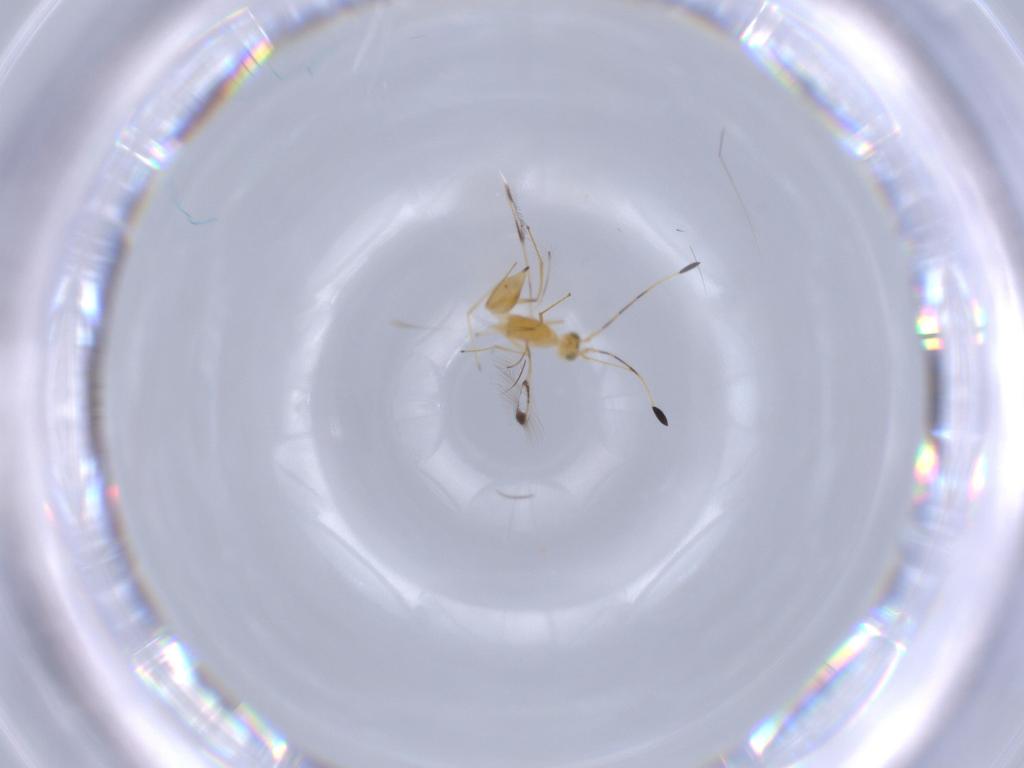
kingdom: Animalia
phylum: Arthropoda
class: Insecta
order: Hymenoptera
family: Mymaridae
